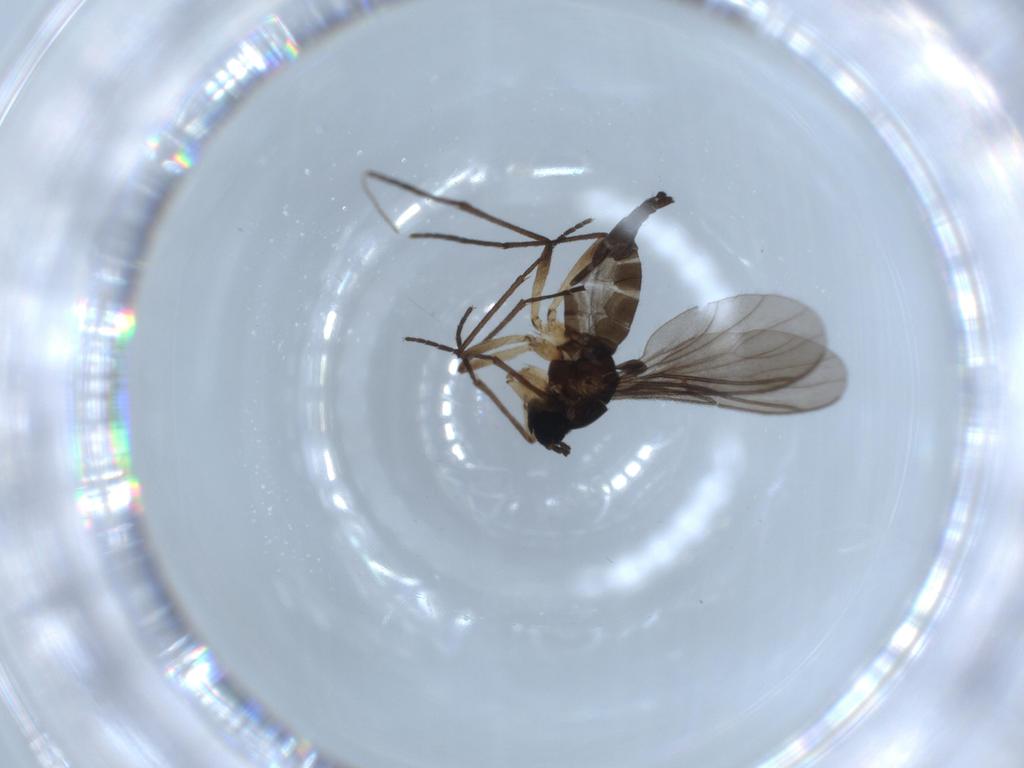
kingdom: Animalia
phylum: Arthropoda
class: Insecta
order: Diptera
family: Sciaridae
